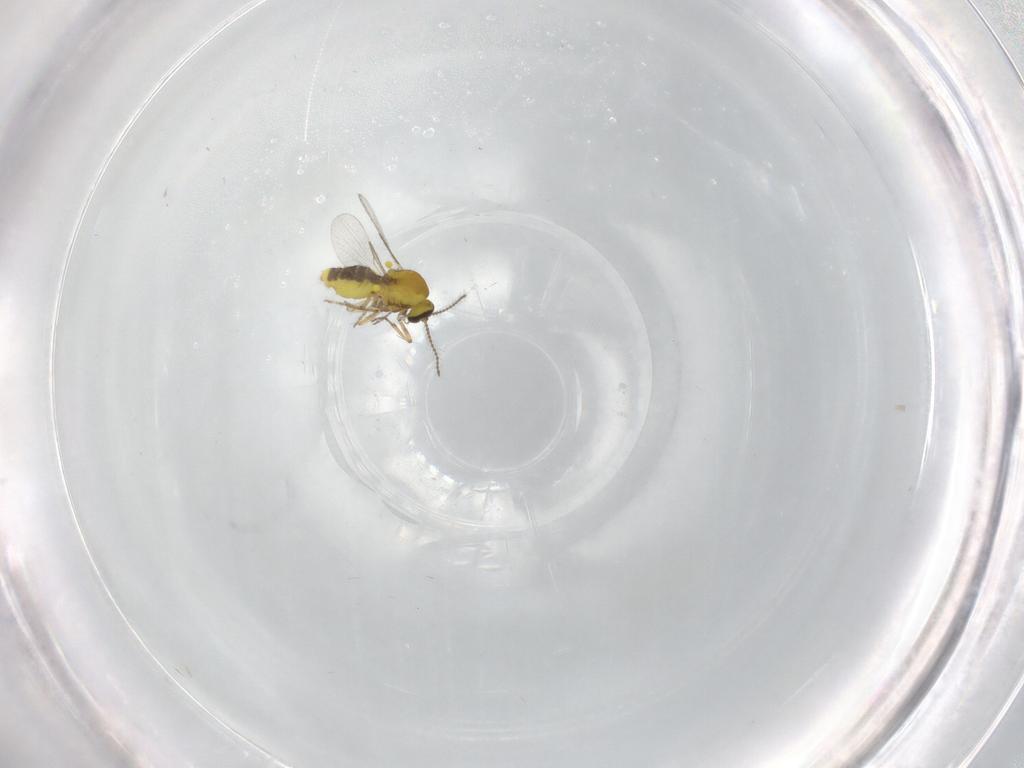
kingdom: Animalia
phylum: Arthropoda
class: Insecta
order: Diptera
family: Ceratopogonidae
